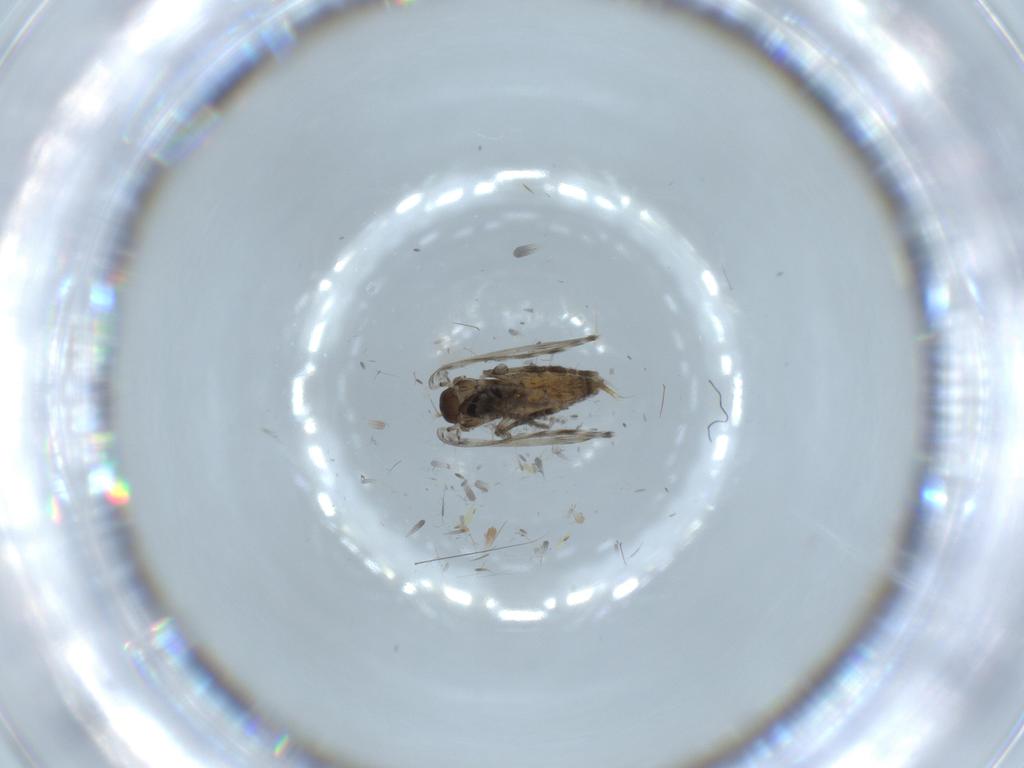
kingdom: Animalia
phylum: Arthropoda
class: Insecta
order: Diptera
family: Psychodidae
